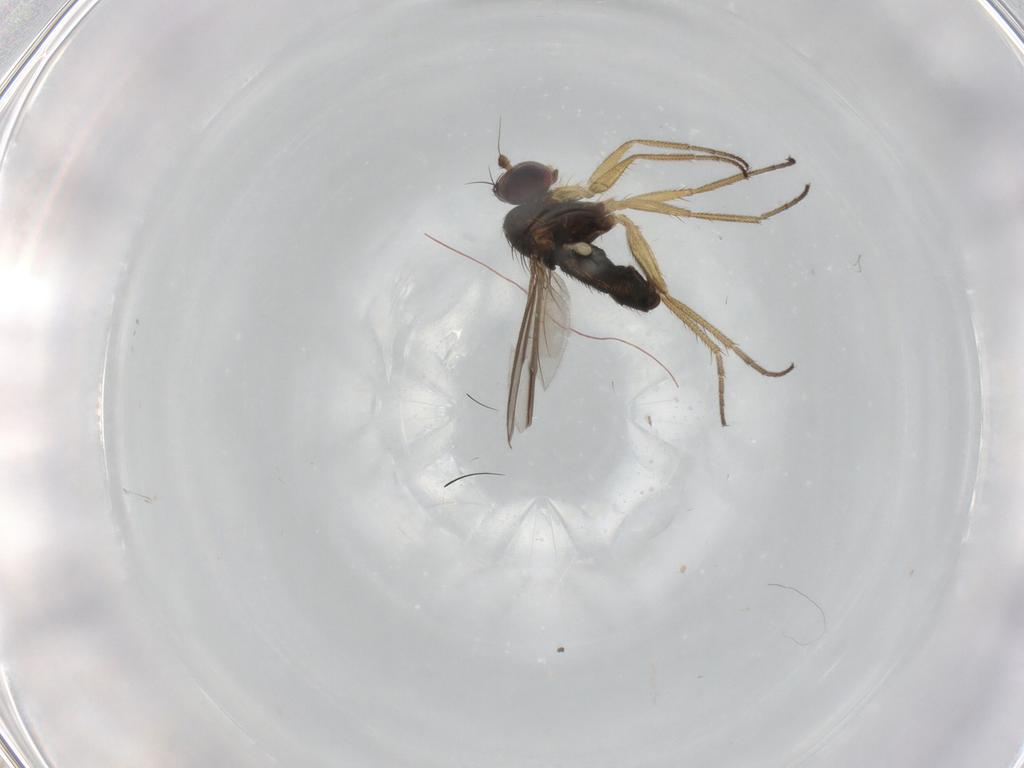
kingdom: Animalia
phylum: Arthropoda
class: Insecta
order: Diptera
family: Dolichopodidae
